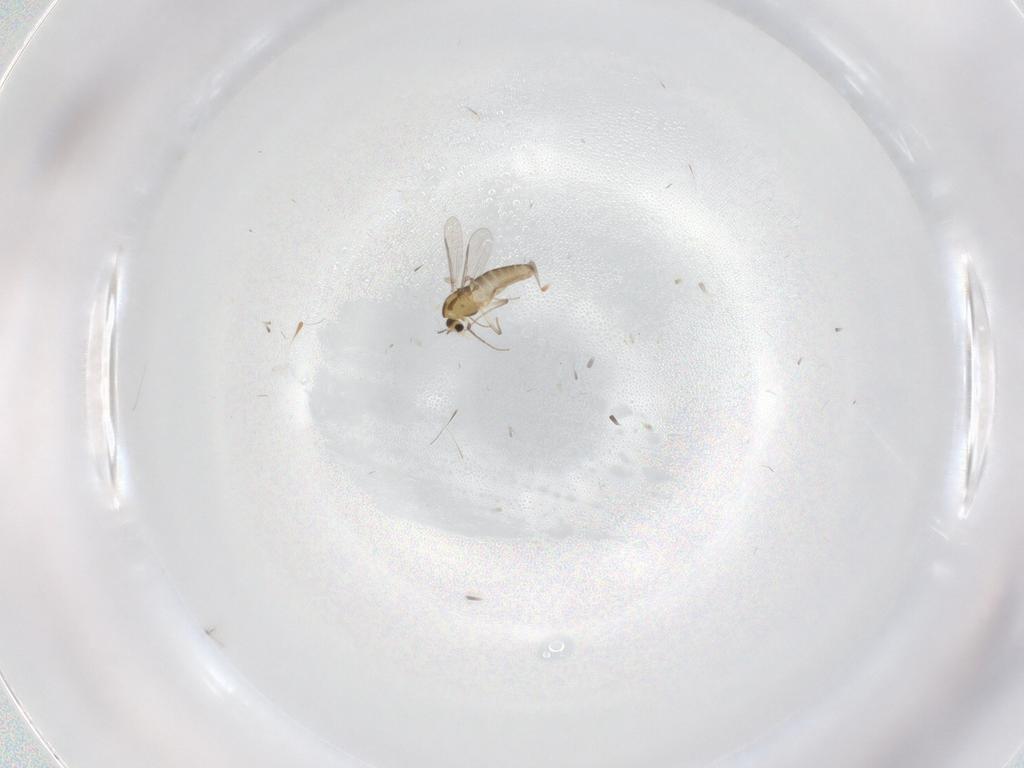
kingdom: Animalia
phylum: Arthropoda
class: Insecta
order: Diptera
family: Chironomidae
